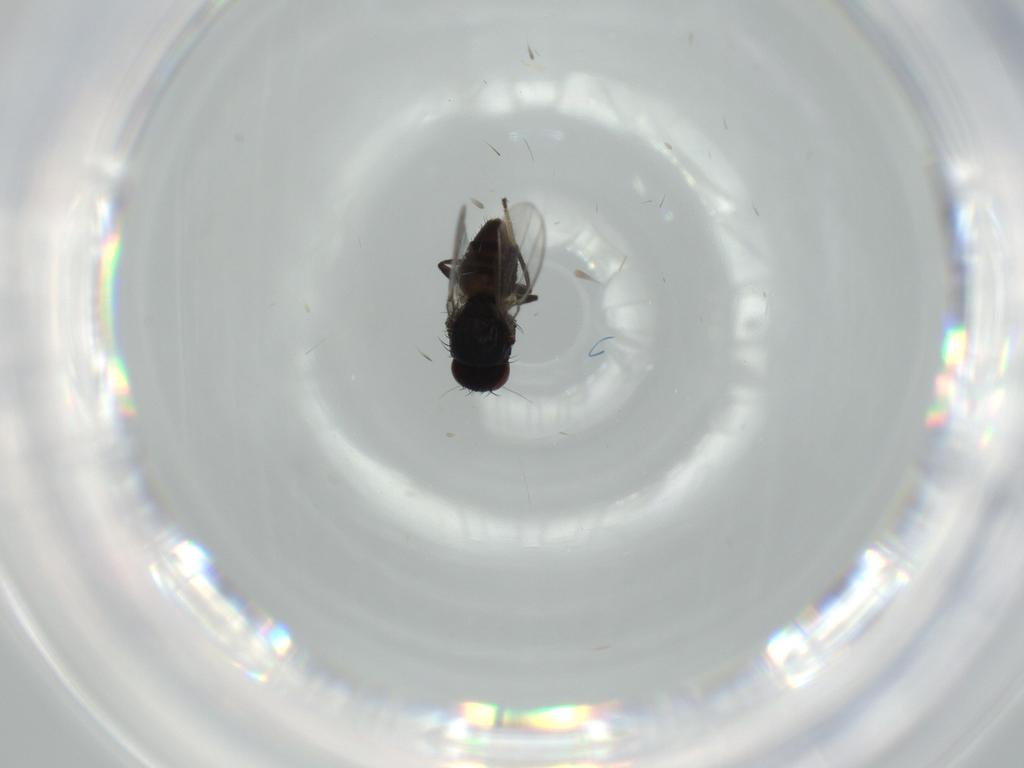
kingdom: Animalia
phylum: Arthropoda
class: Insecta
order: Diptera
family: Milichiidae
